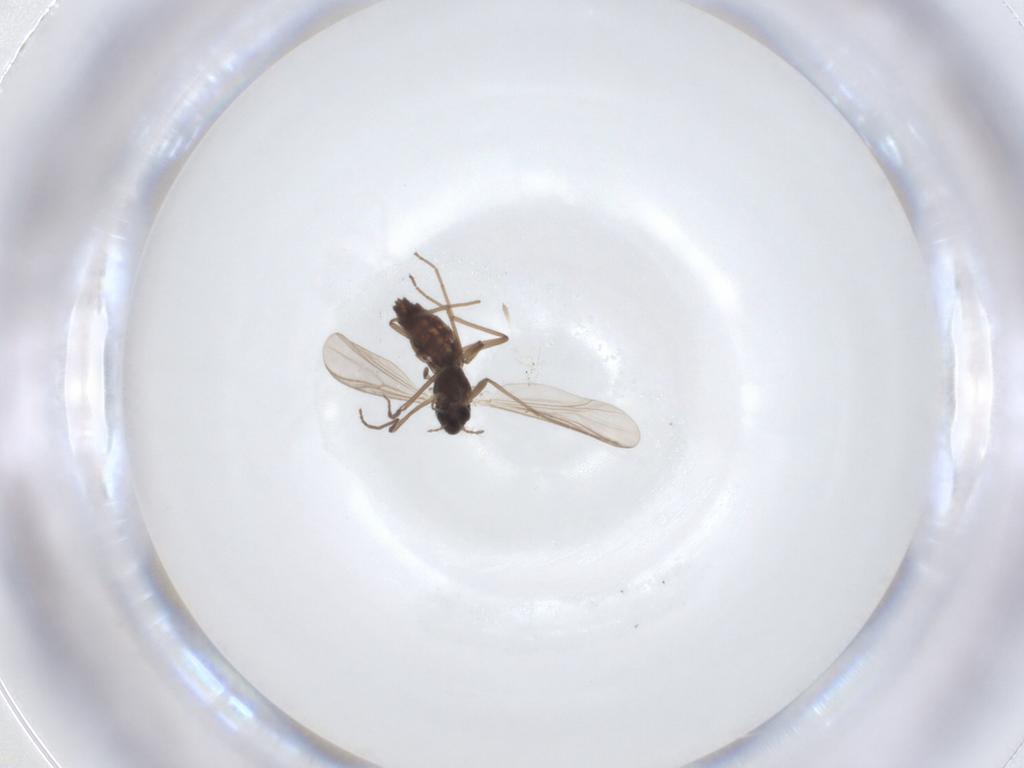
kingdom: Animalia
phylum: Arthropoda
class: Insecta
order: Diptera
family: Chironomidae
